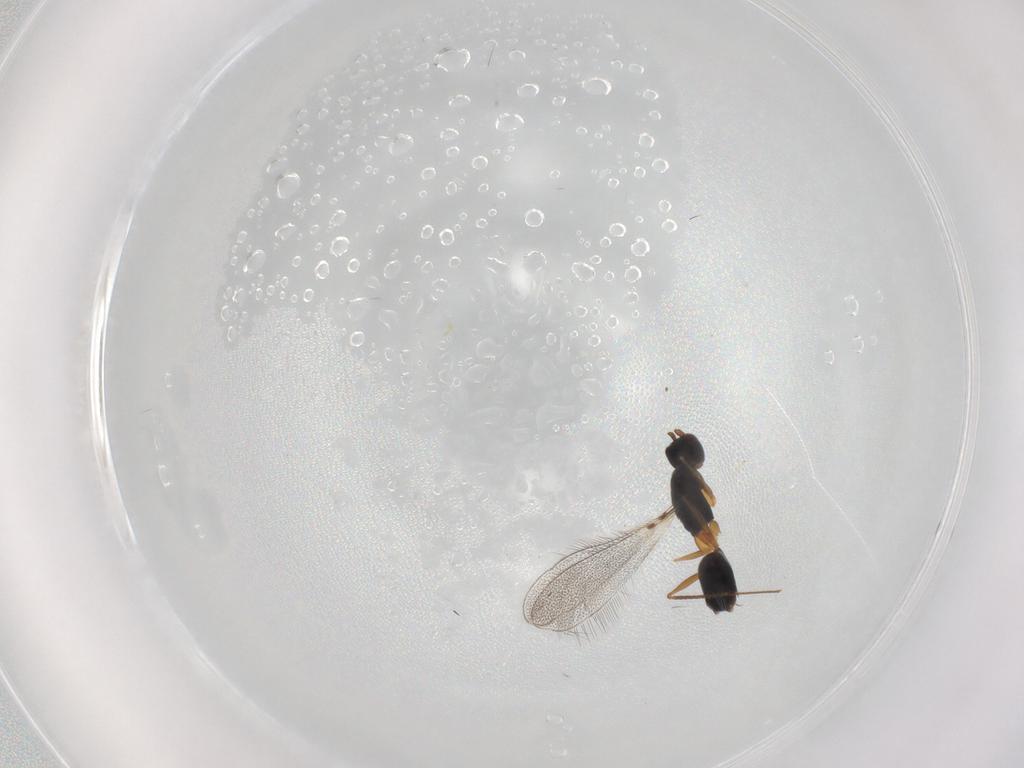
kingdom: Animalia
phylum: Arthropoda
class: Insecta
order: Hymenoptera
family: Mymaridae
